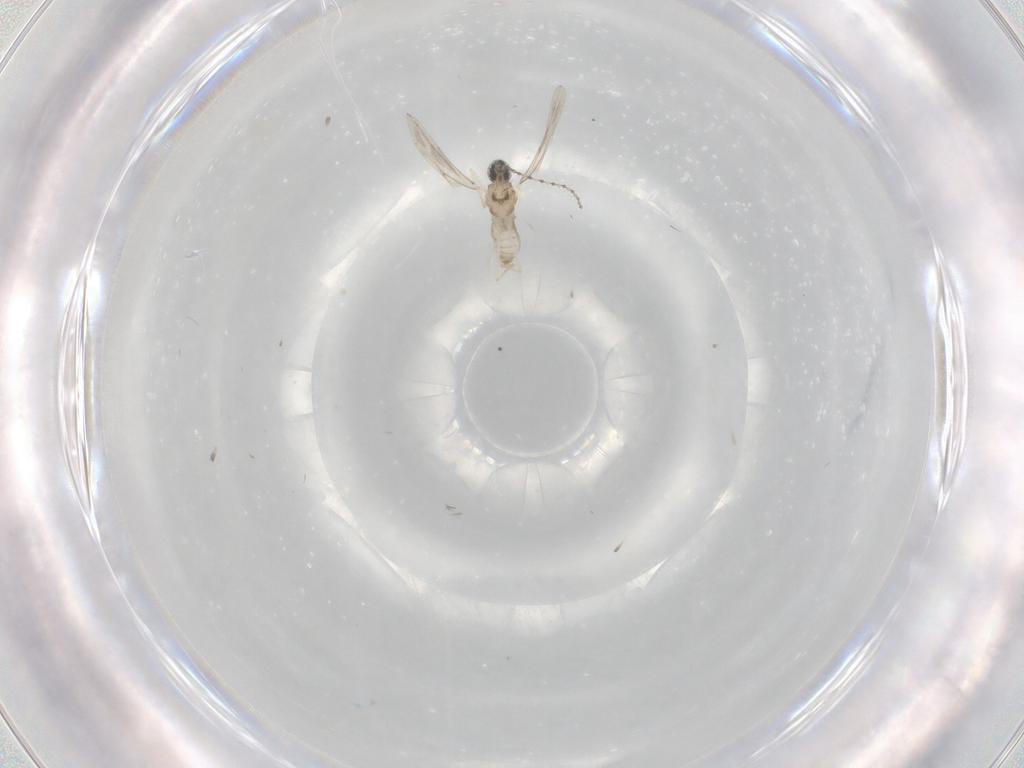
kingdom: Animalia
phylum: Arthropoda
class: Insecta
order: Diptera
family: Cecidomyiidae
